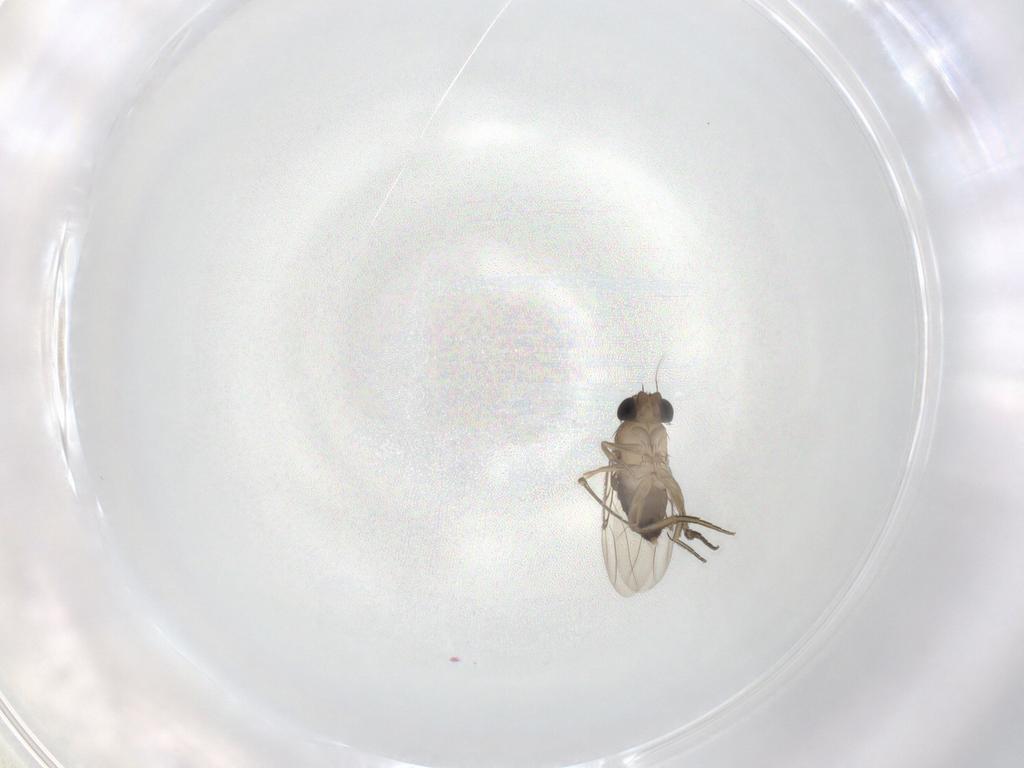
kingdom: Animalia
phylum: Arthropoda
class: Insecta
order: Diptera
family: Phoridae
